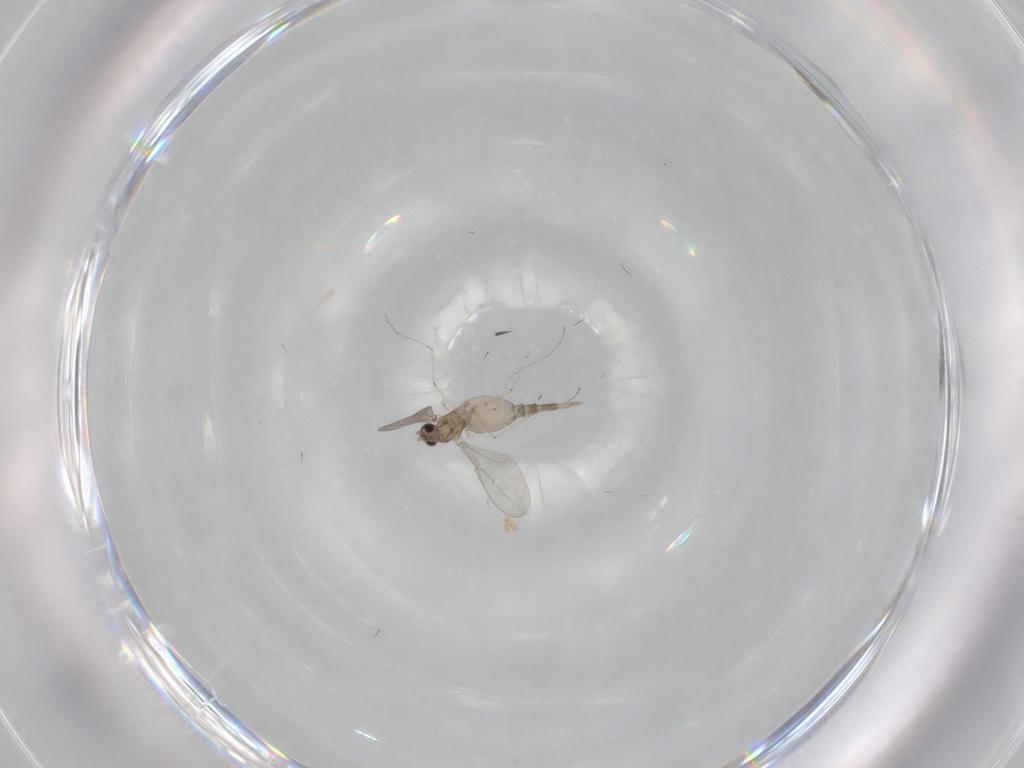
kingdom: Animalia
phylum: Arthropoda
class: Insecta
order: Diptera
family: Cecidomyiidae
